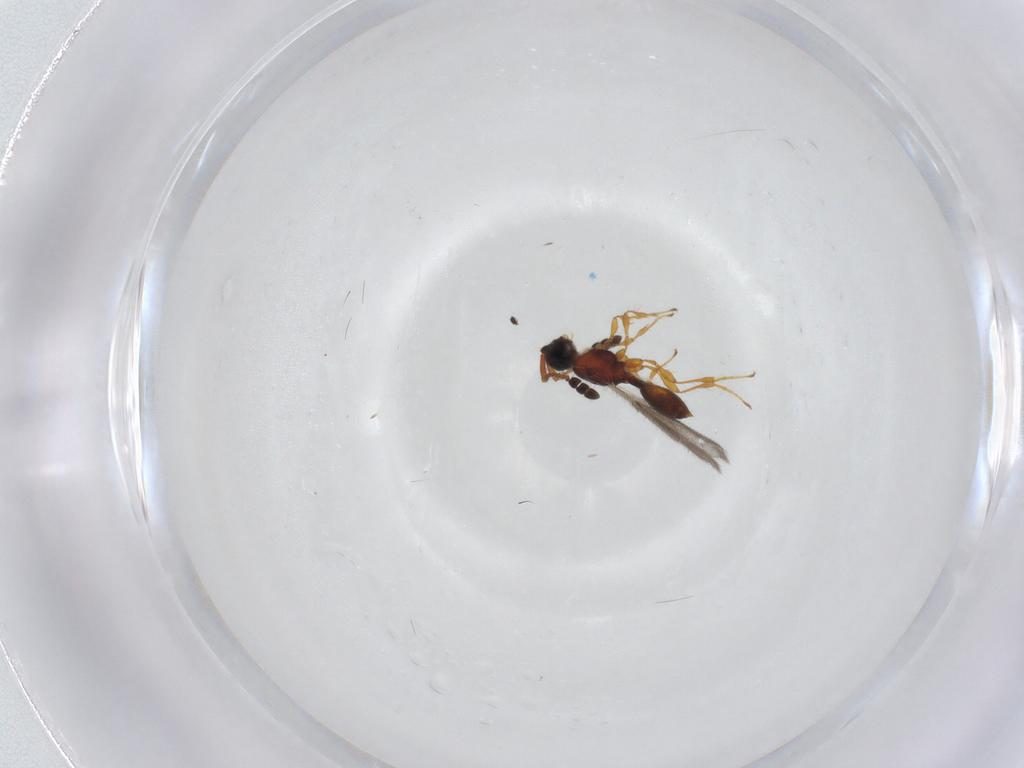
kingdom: Animalia
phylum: Arthropoda
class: Insecta
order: Hymenoptera
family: Diapriidae
